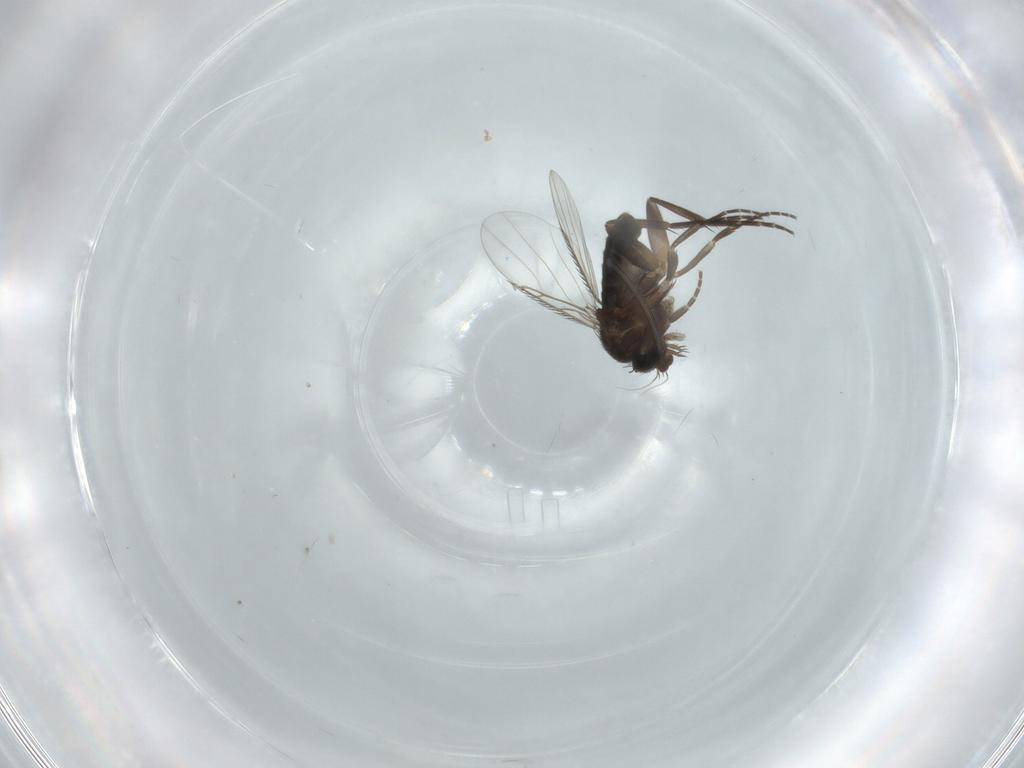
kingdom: Animalia
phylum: Arthropoda
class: Insecta
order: Diptera
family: Phoridae
